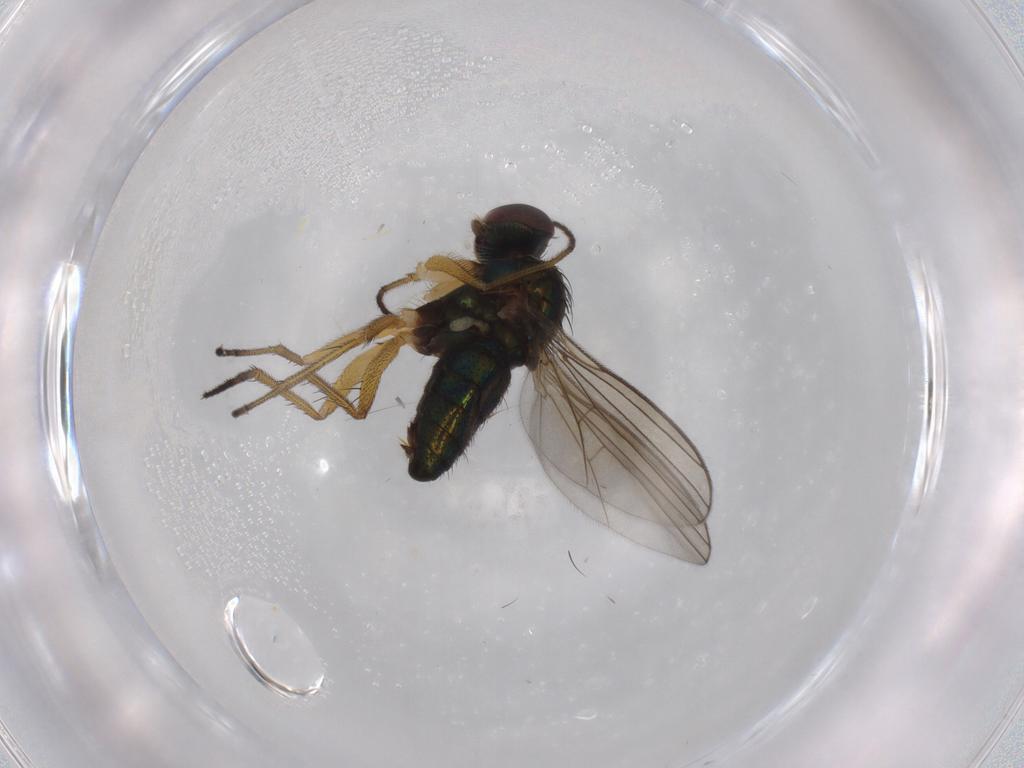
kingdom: Animalia
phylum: Arthropoda
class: Insecta
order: Diptera
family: Dolichopodidae
